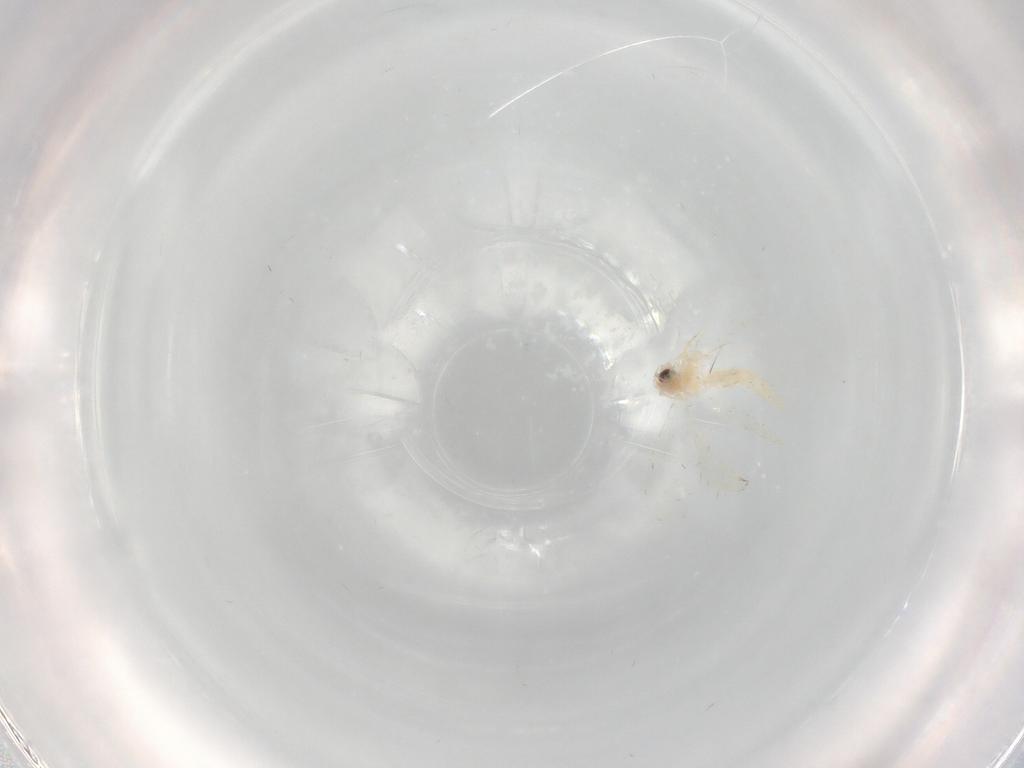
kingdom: Animalia
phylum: Arthropoda
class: Insecta
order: Hemiptera
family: Aleyrodidae
